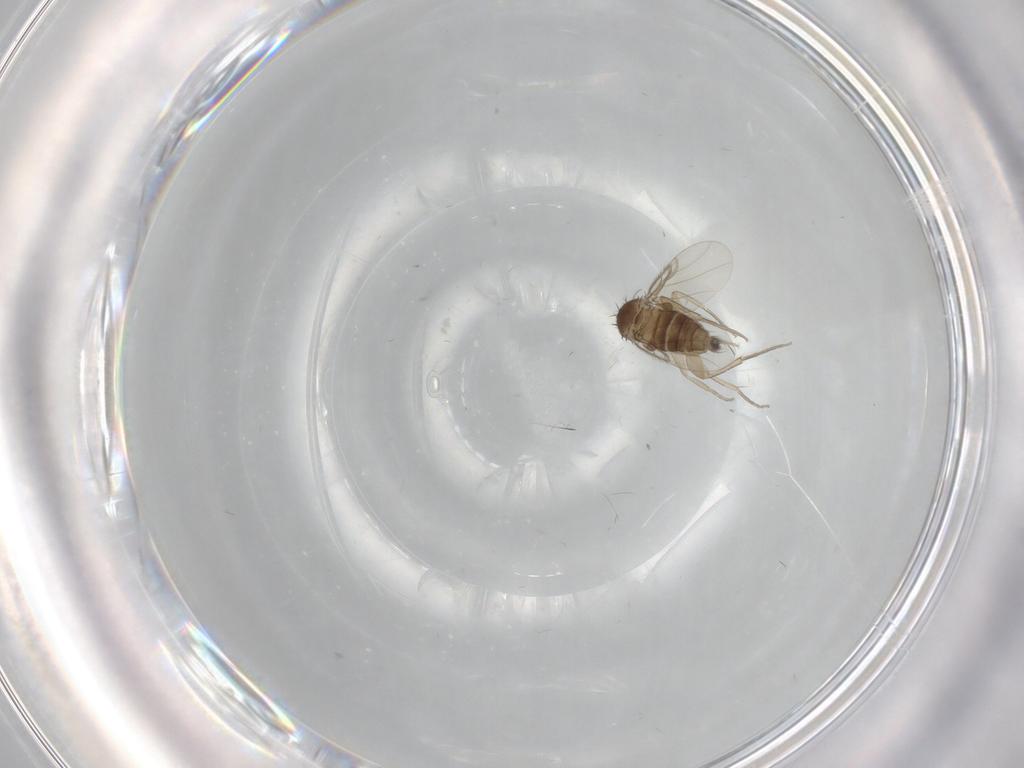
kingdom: Animalia
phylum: Arthropoda
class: Insecta
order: Diptera
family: Phoridae
